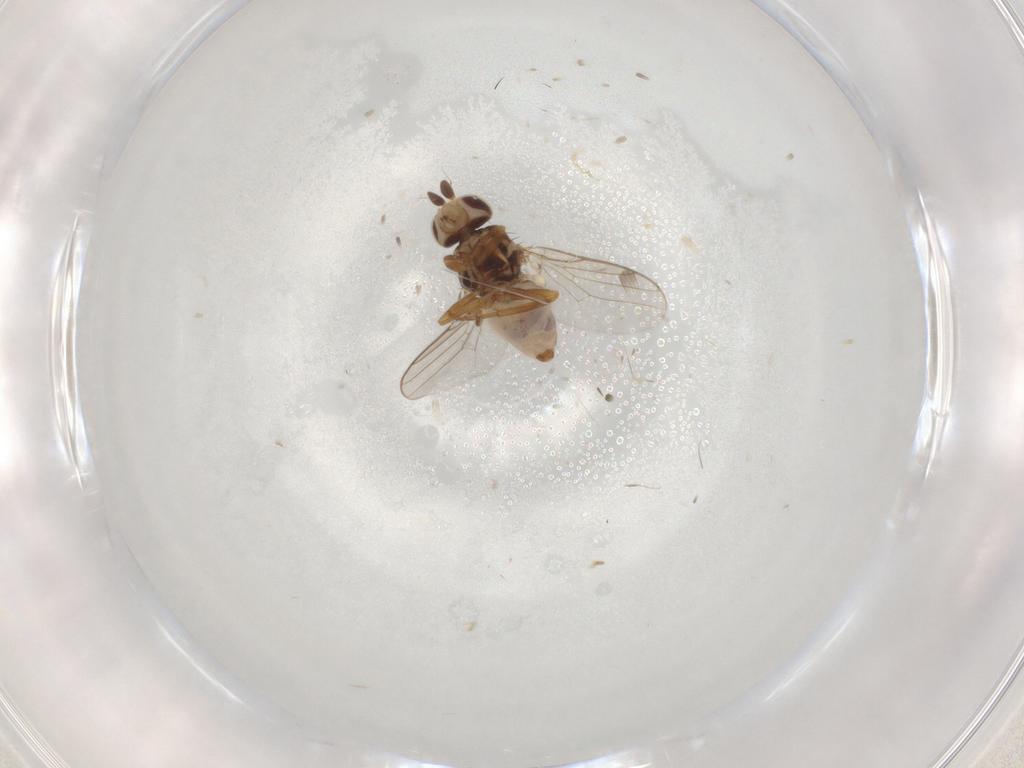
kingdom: Animalia
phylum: Arthropoda
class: Insecta
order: Diptera
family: Chloropidae
